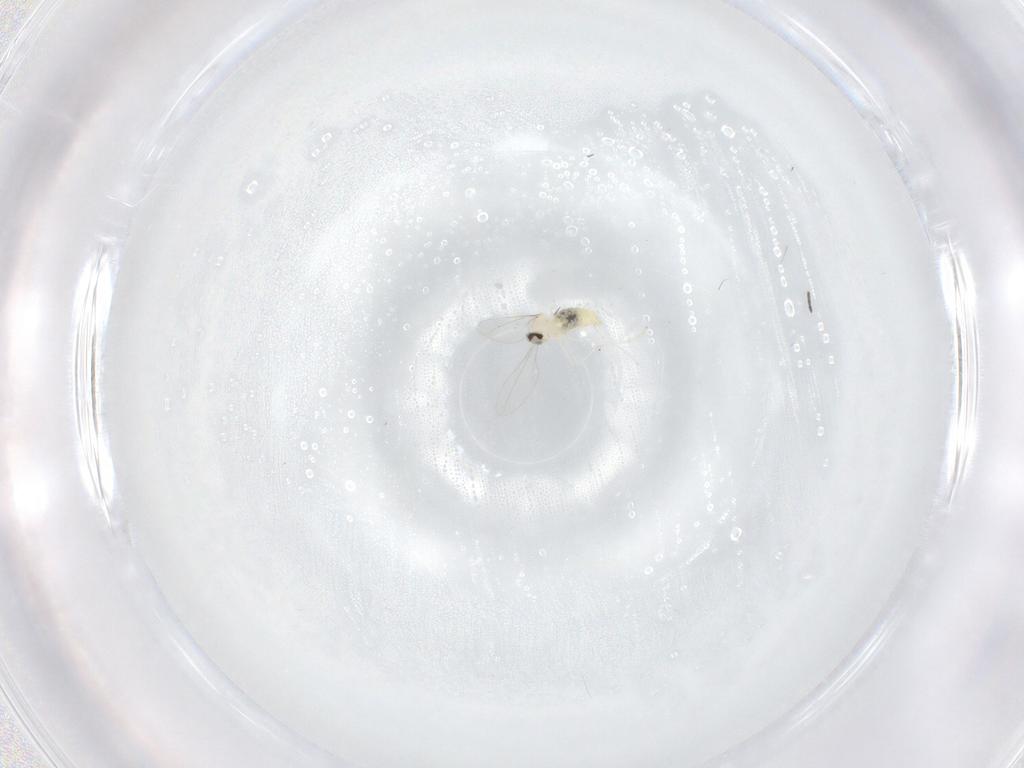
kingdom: Animalia
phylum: Arthropoda
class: Insecta
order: Diptera
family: Cecidomyiidae
